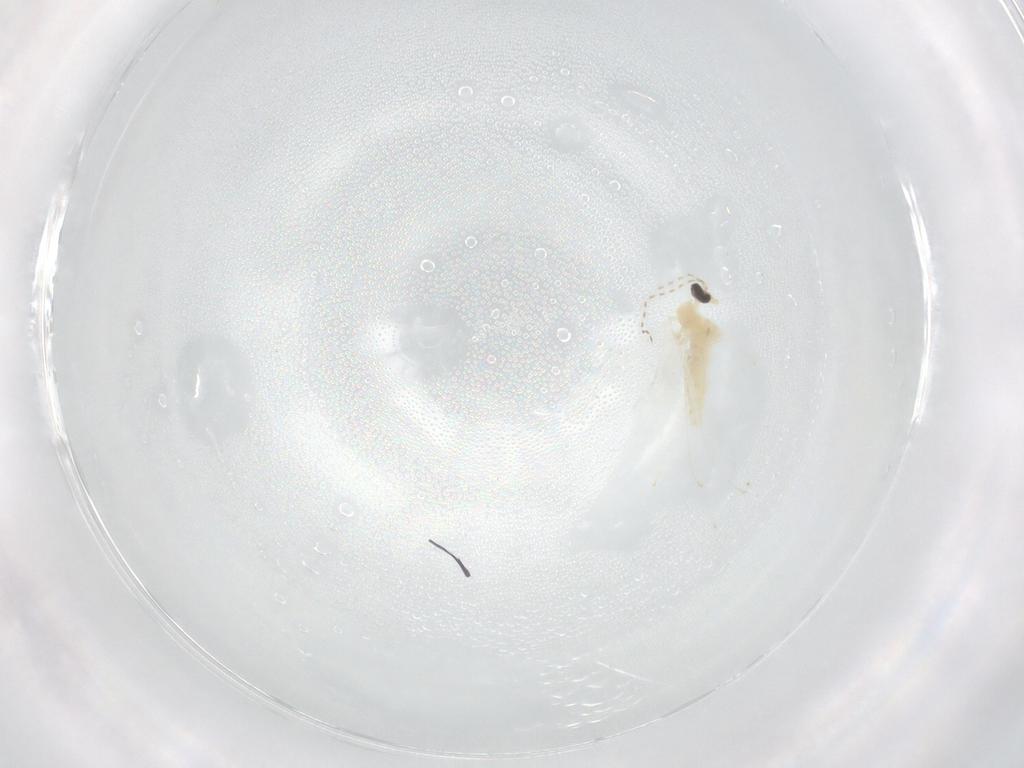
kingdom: Animalia
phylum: Arthropoda
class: Insecta
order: Diptera
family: Cecidomyiidae
